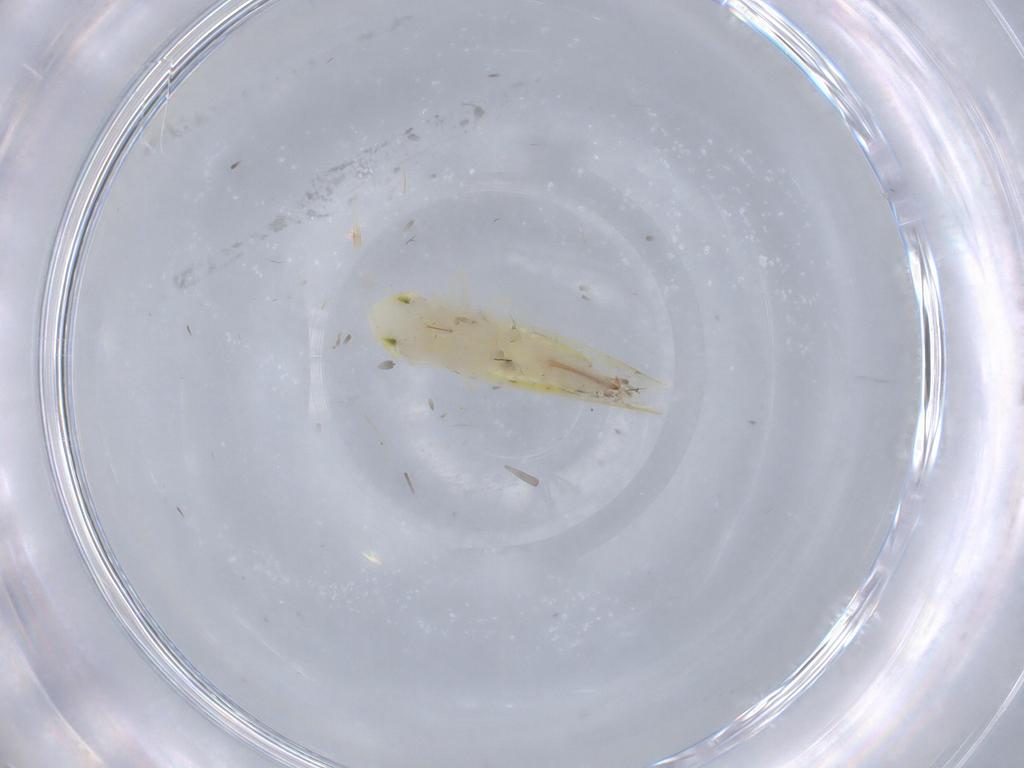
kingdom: Animalia
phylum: Arthropoda
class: Insecta
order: Hemiptera
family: Cicadellidae
